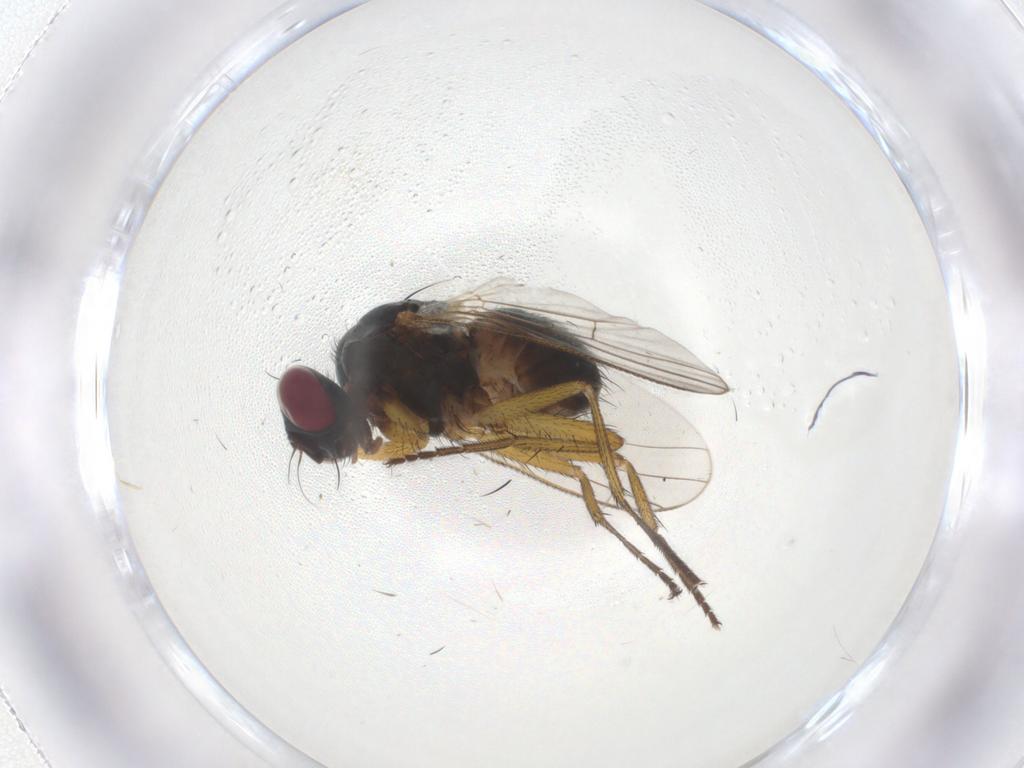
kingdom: Animalia
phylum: Arthropoda
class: Insecta
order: Diptera
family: Muscidae
